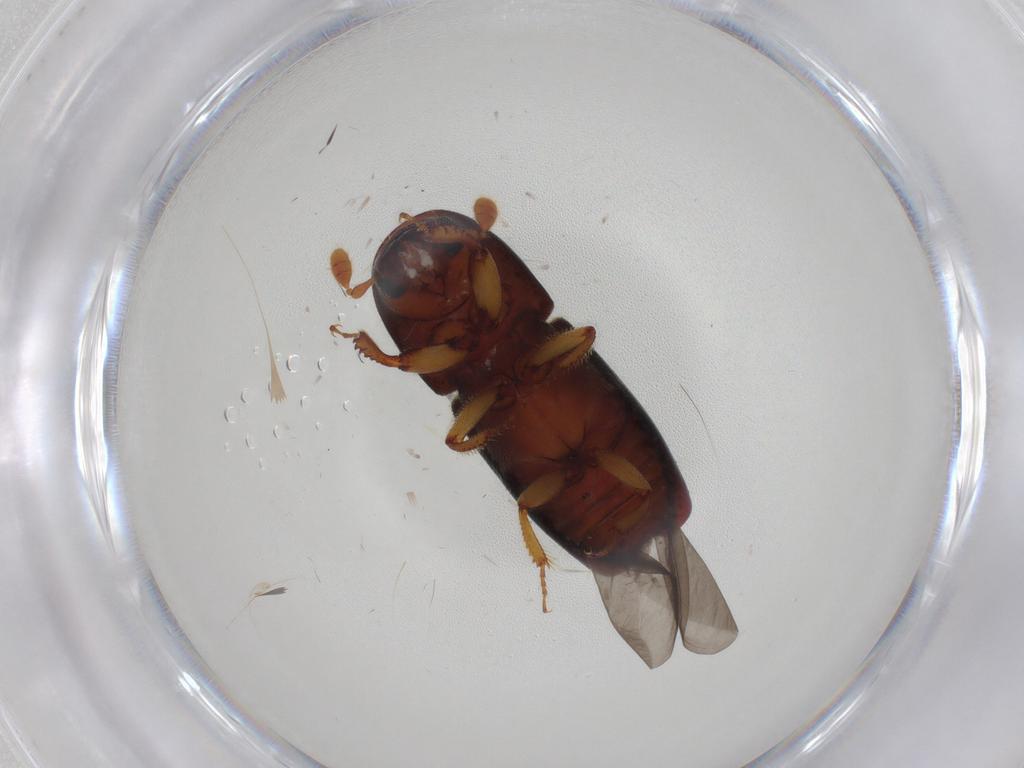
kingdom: Animalia
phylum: Arthropoda
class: Insecta
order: Coleoptera
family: Curculionidae
